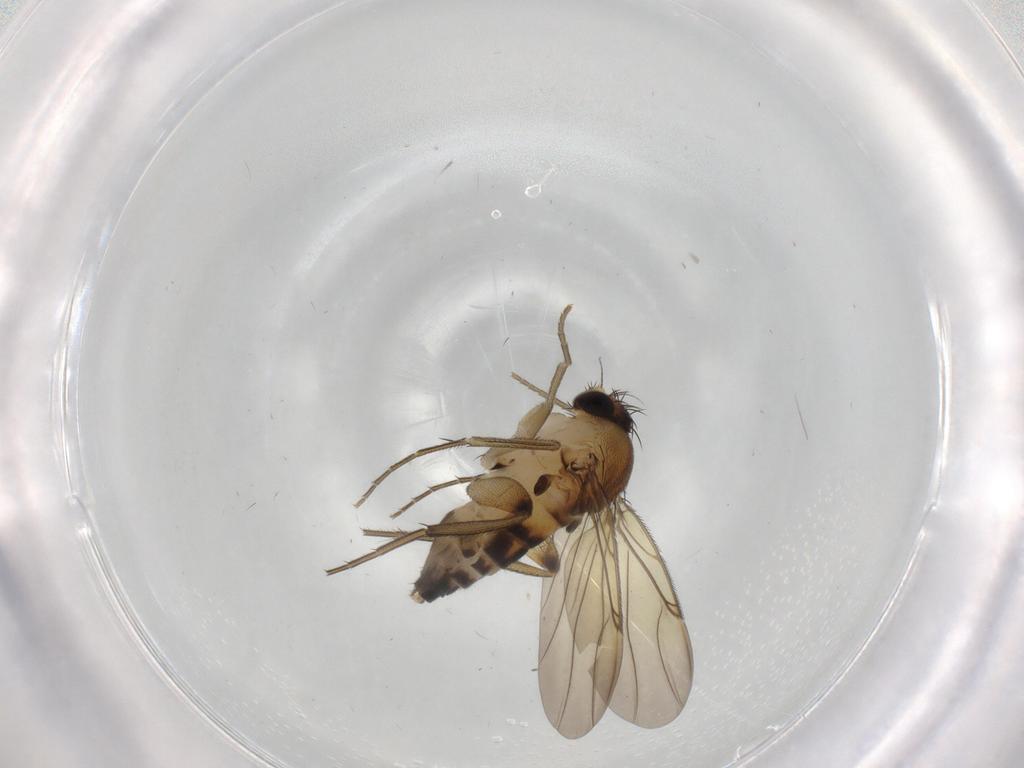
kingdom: Animalia
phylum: Arthropoda
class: Insecta
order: Diptera
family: Phoridae
